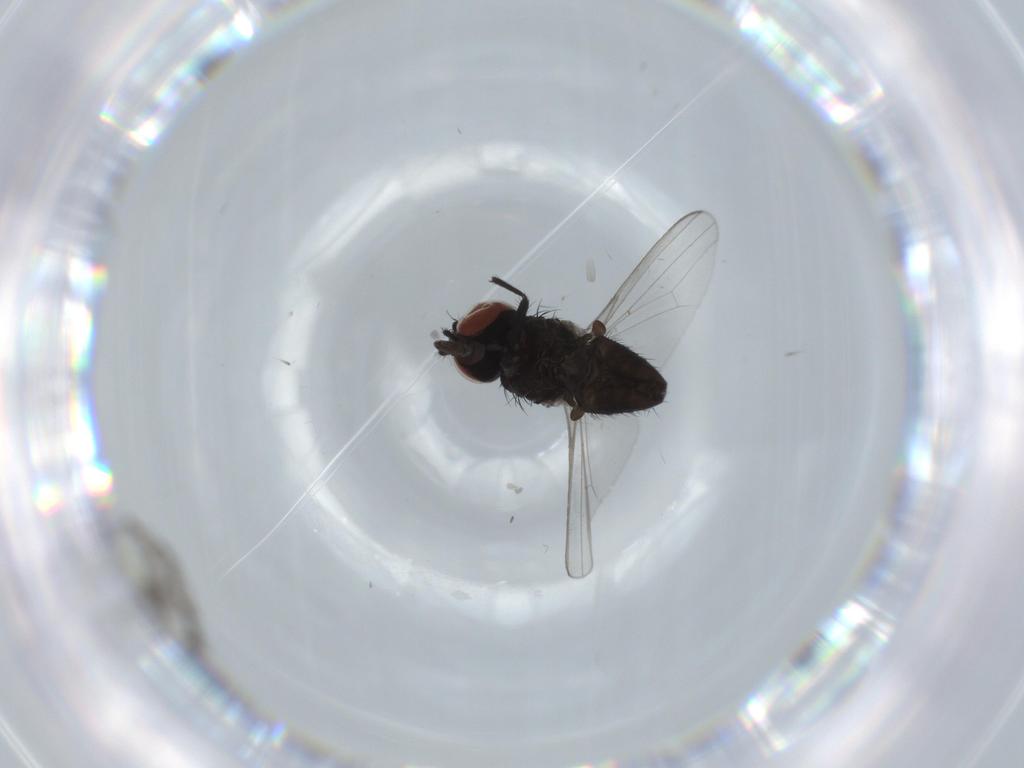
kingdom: Animalia
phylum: Arthropoda
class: Insecta
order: Diptera
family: Milichiidae
